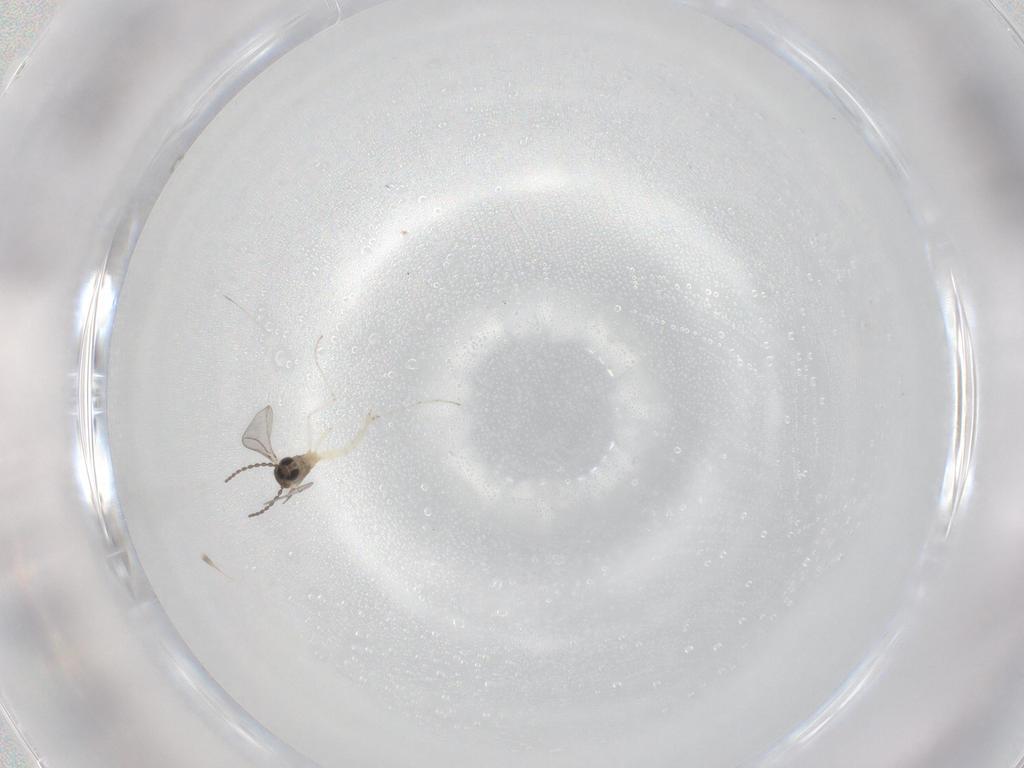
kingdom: Animalia
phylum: Arthropoda
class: Insecta
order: Diptera
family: Chironomidae
